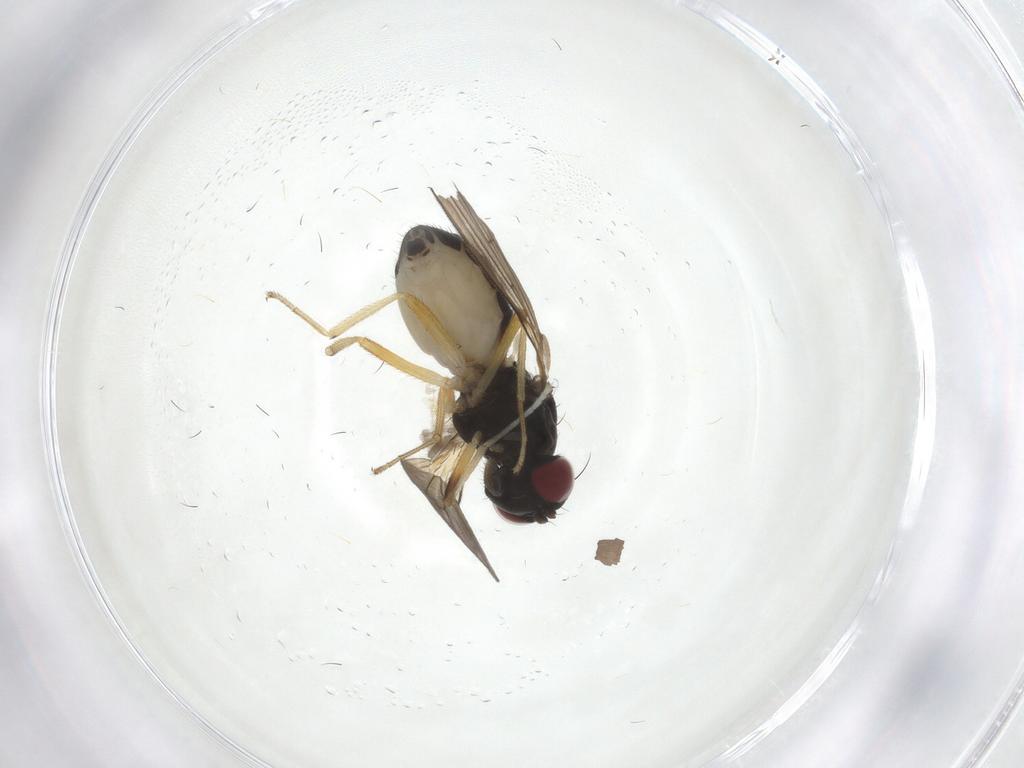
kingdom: Animalia
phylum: Arthropoda
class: Insecta
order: Diptera
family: Lauxaniidae
